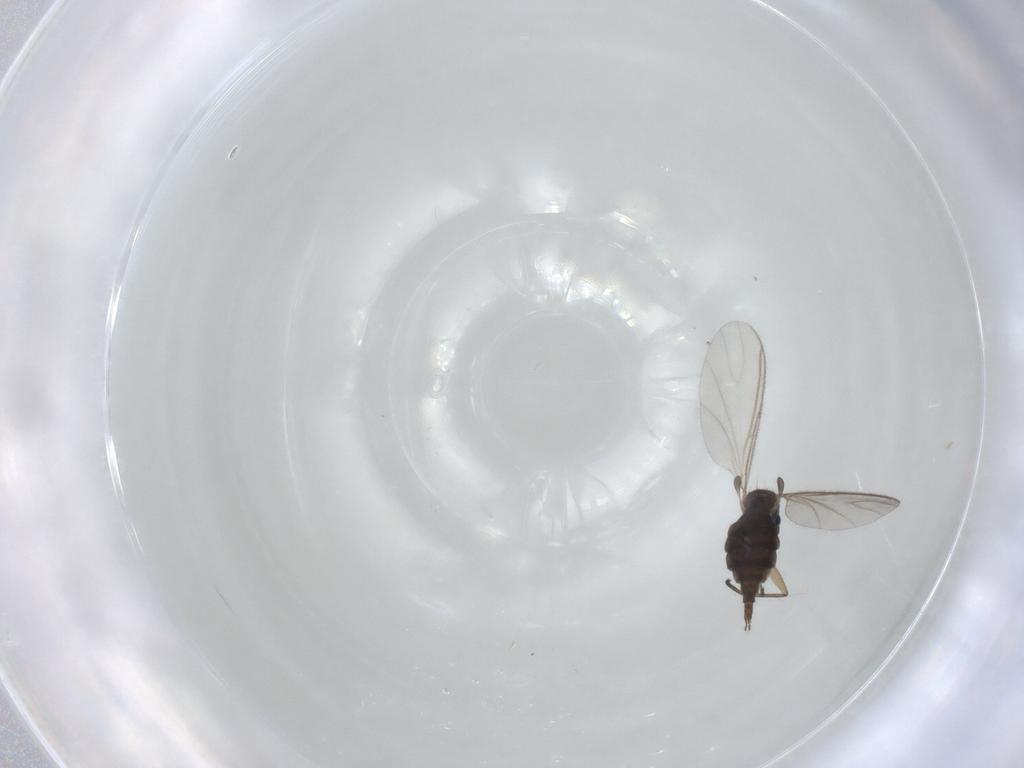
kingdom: Animalia
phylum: Arthropoda
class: Insecta
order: Diptera
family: Sciaridae
